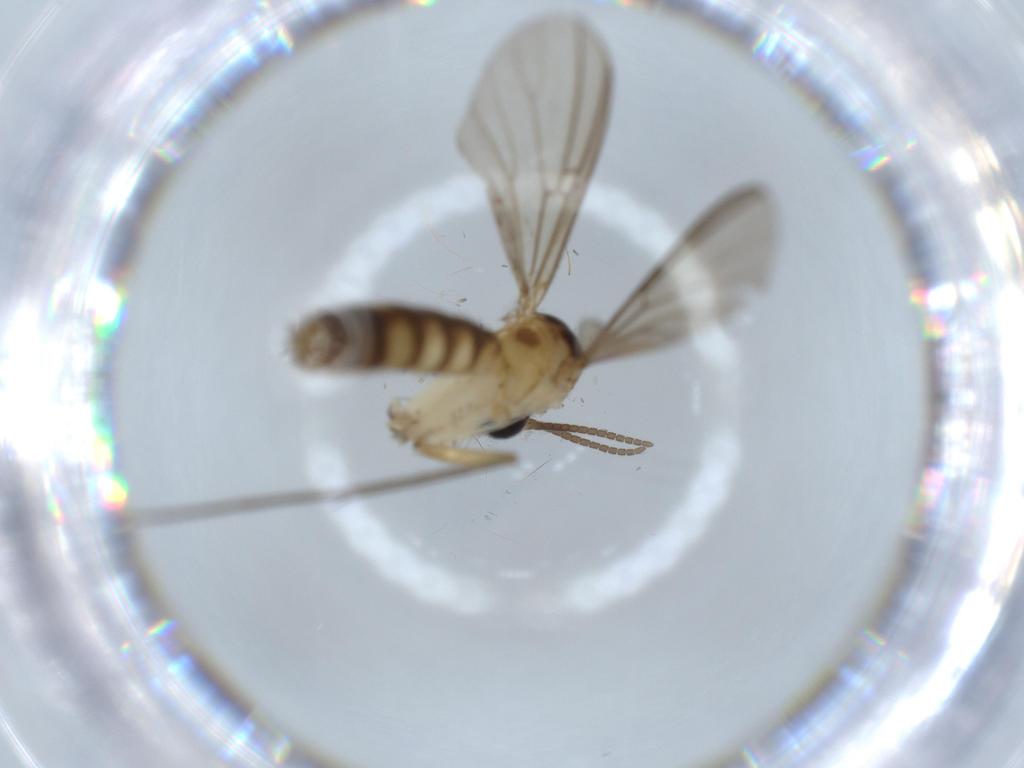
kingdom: Animalia
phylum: Arthropoda
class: Insecta
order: Diptera
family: Mycetophilidae
